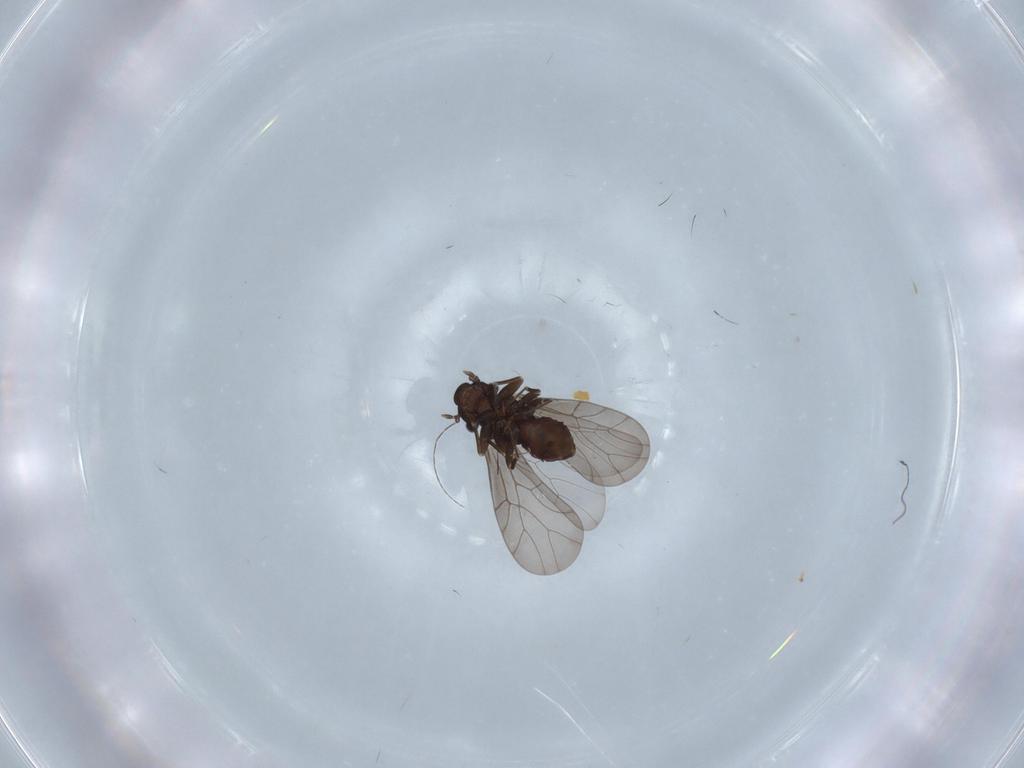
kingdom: Animalia
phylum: Arthropoda
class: Insecta
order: Psocodea
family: Lepidopsocidae
